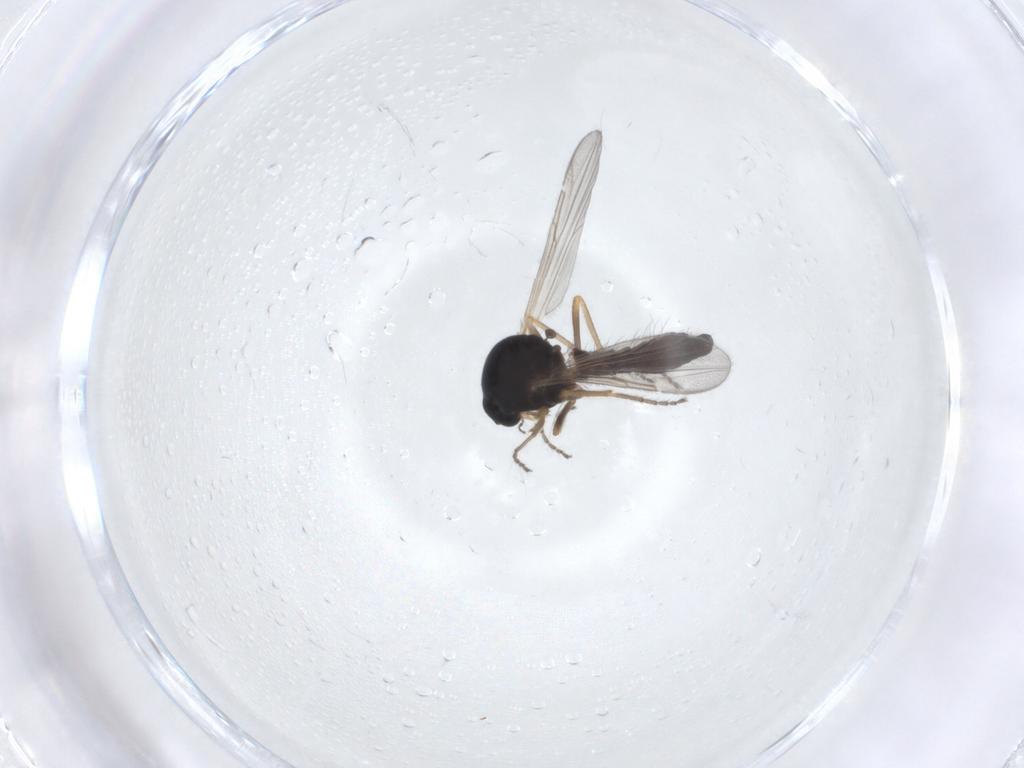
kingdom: Animalia
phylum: Arthropoda
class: Insecta
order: Diptera
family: Ceratopogonidae
